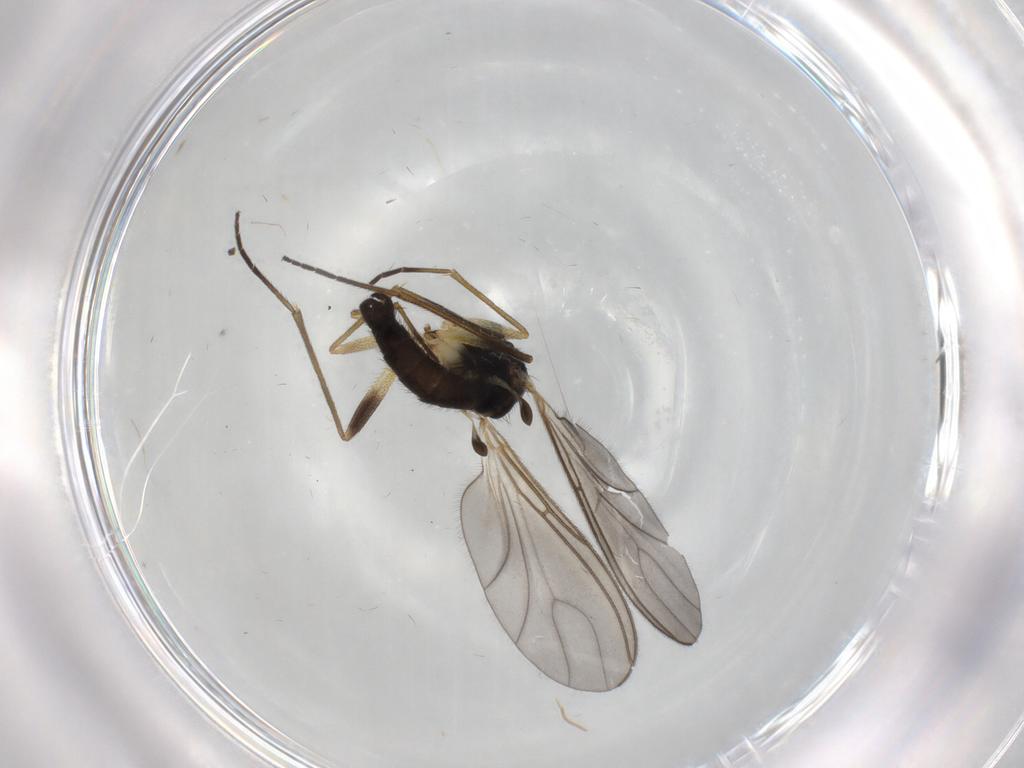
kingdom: Animalia
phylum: Arthropoda
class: Insecta
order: Diptera
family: Sciaridae
